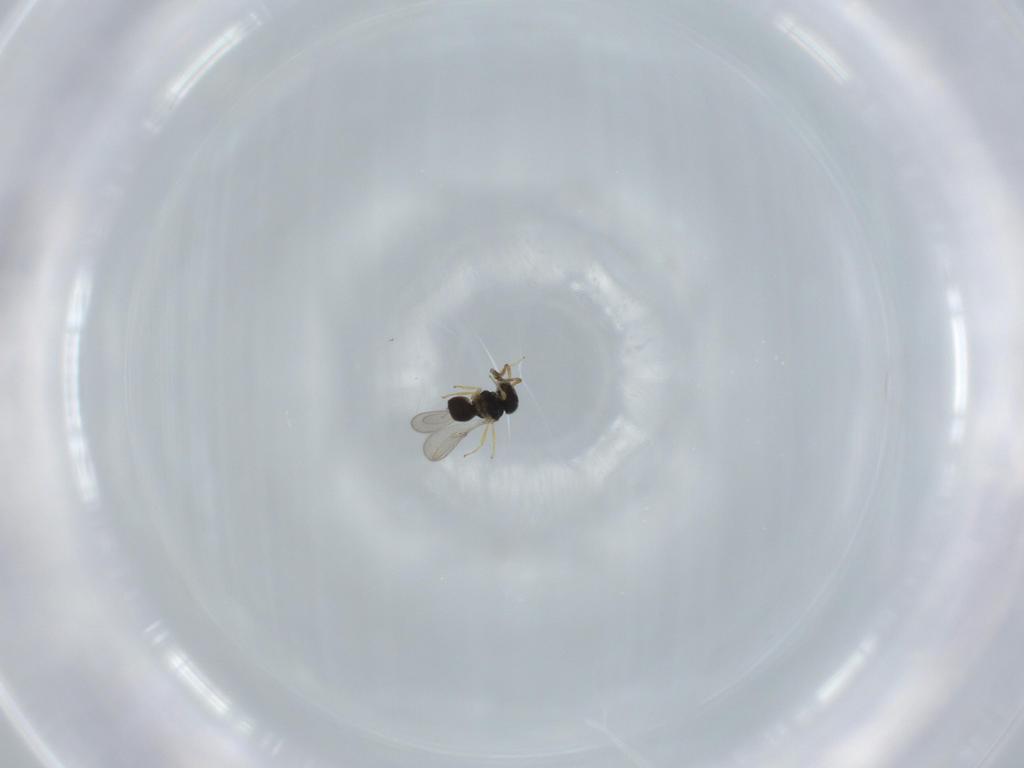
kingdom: Animalia
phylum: Arthropoda
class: Insecta
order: Hymenoptera
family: Scelionidae
